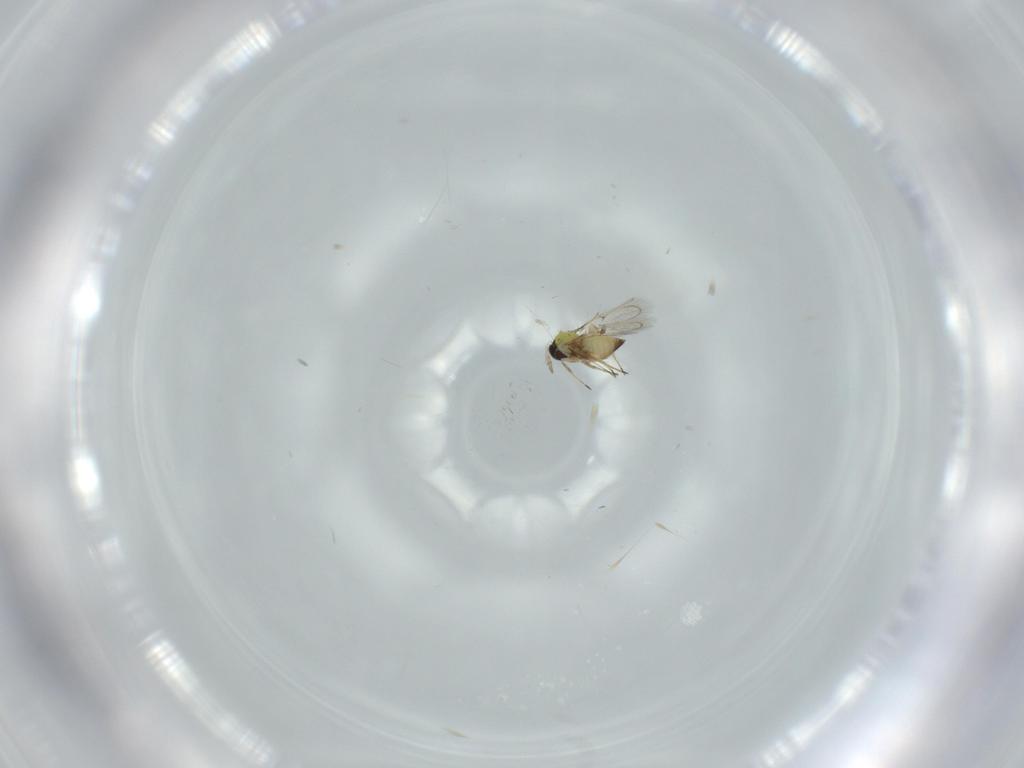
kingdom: Animalia
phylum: Arthropoda
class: Insecta
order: Hymenoptera
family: Trichogrammatidae
